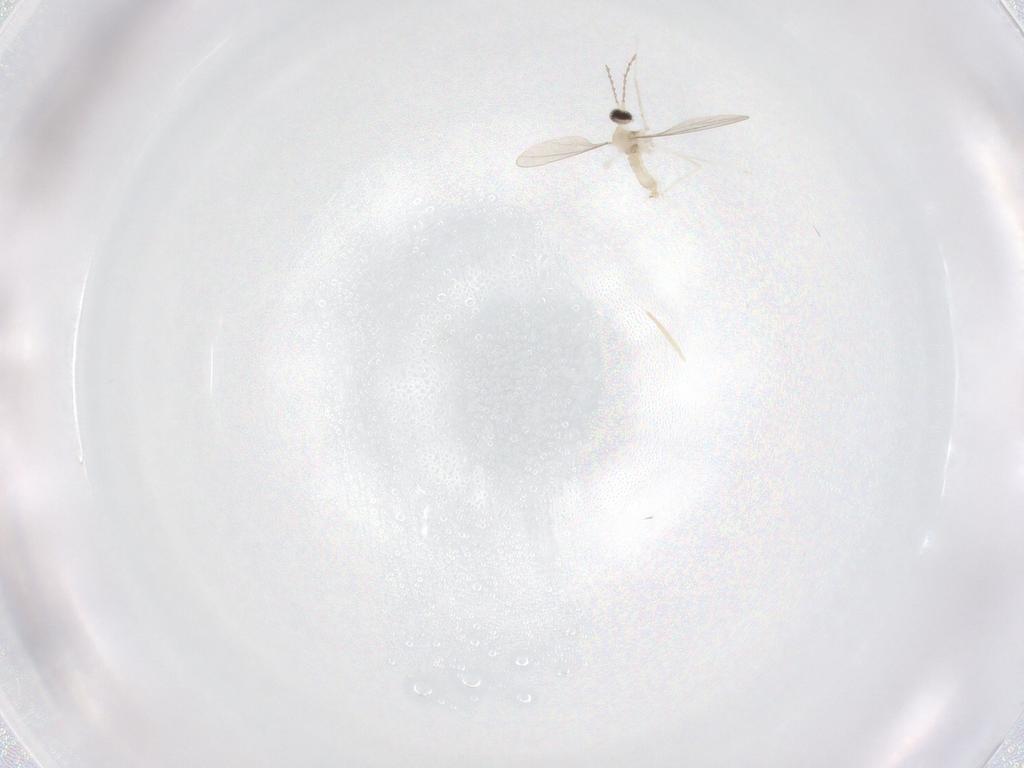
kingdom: Animalia
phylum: Arthropoda
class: Insecta
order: Diptera
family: Cecidomyiidae
